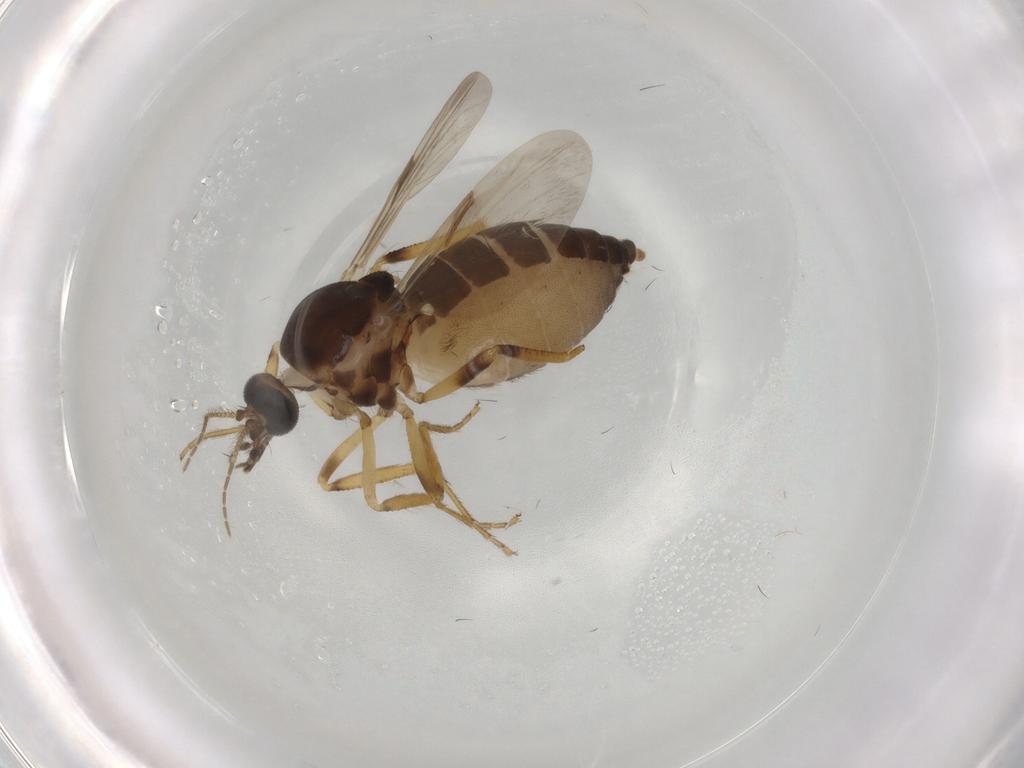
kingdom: Animalia
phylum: Arthropoda
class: Insecta
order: Diptera
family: Ceratopogonidae
